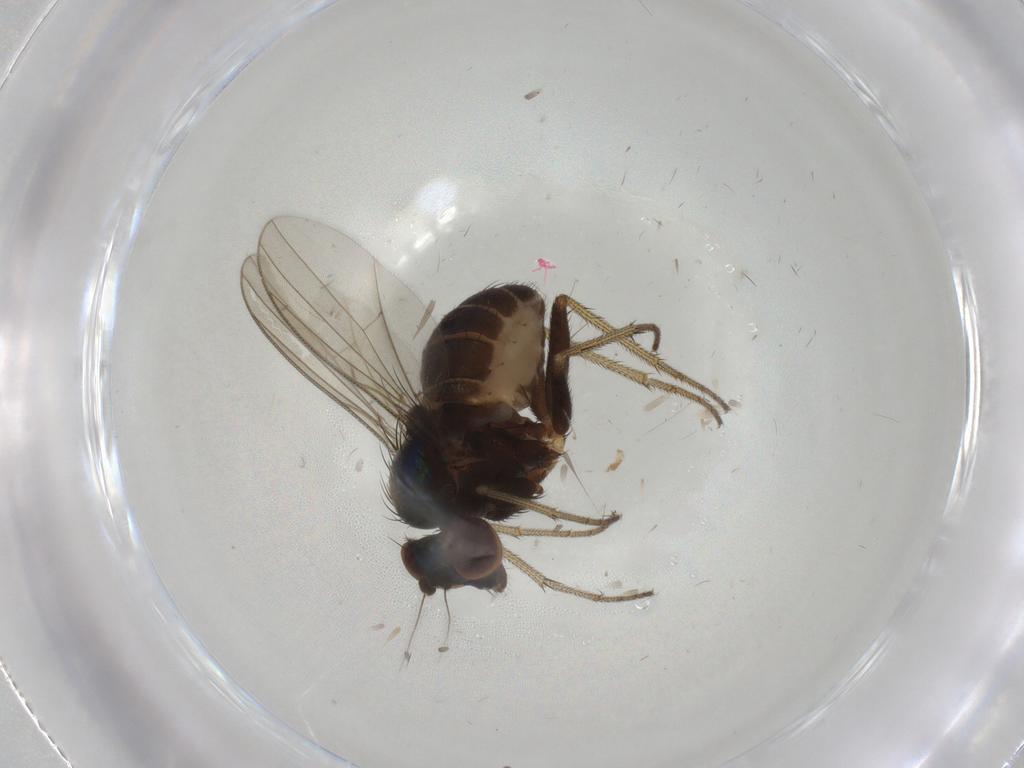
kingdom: Animalia
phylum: Arthropoda
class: Insecta
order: Diptera
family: Dolichopodidae
